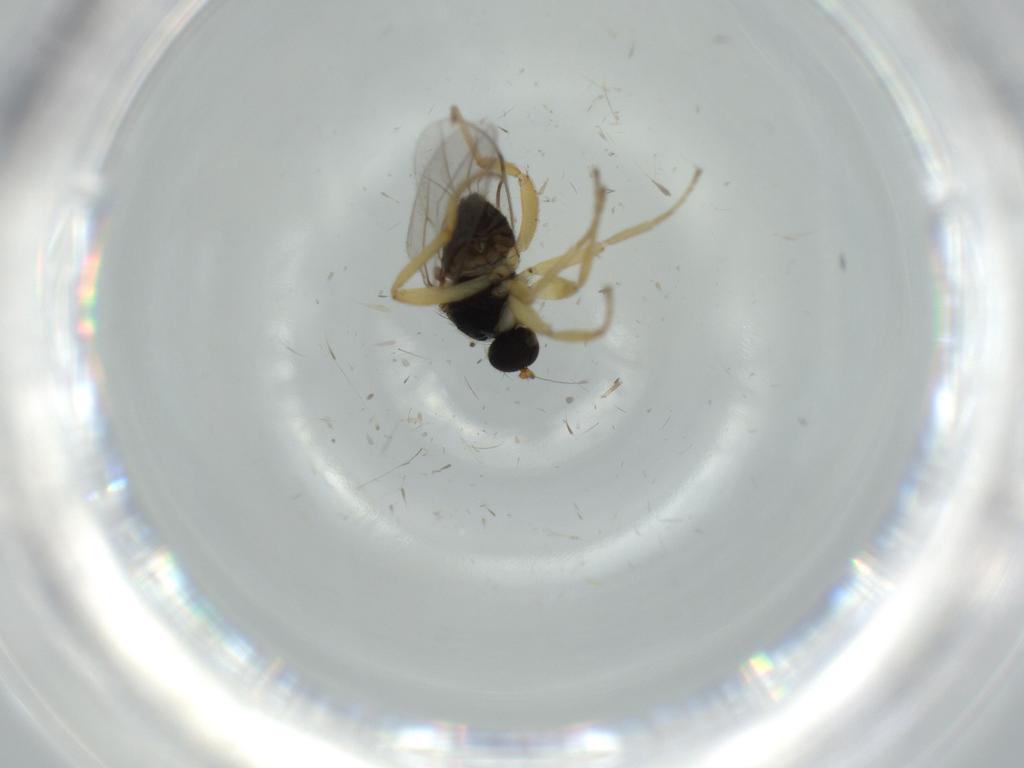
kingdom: Animalia
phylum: Arthropoda
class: Insecta
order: Diptera
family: Hybotidae
